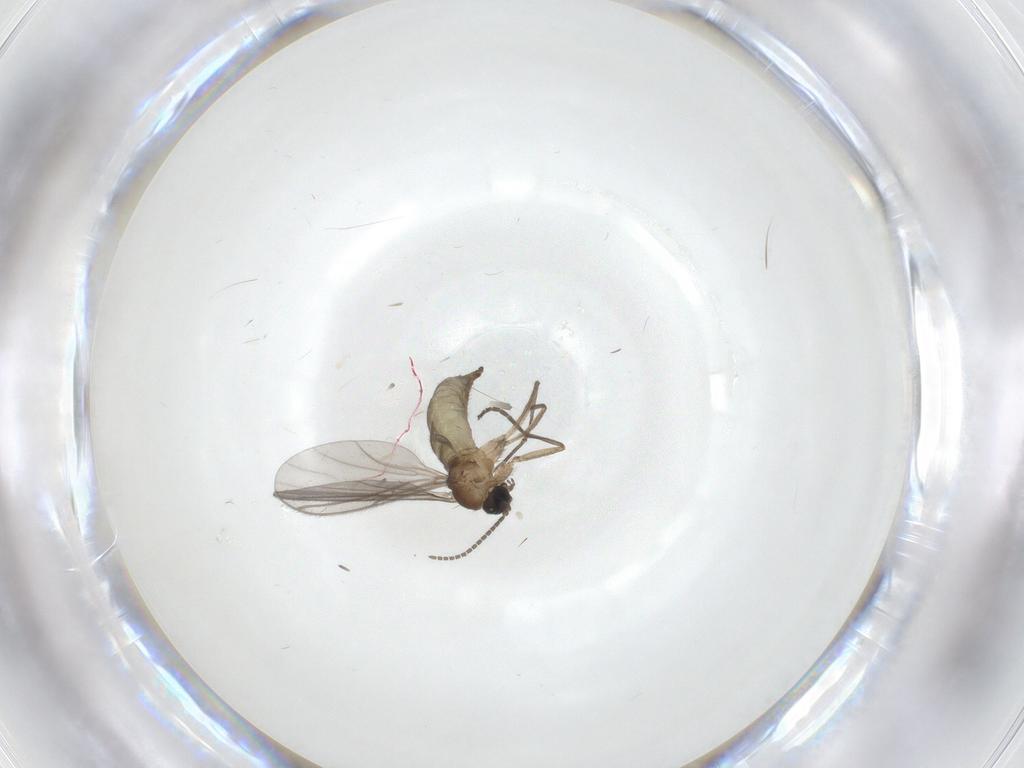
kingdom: Animalia
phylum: Arthropoda
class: Insecta
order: Diptera
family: Sciaridae
